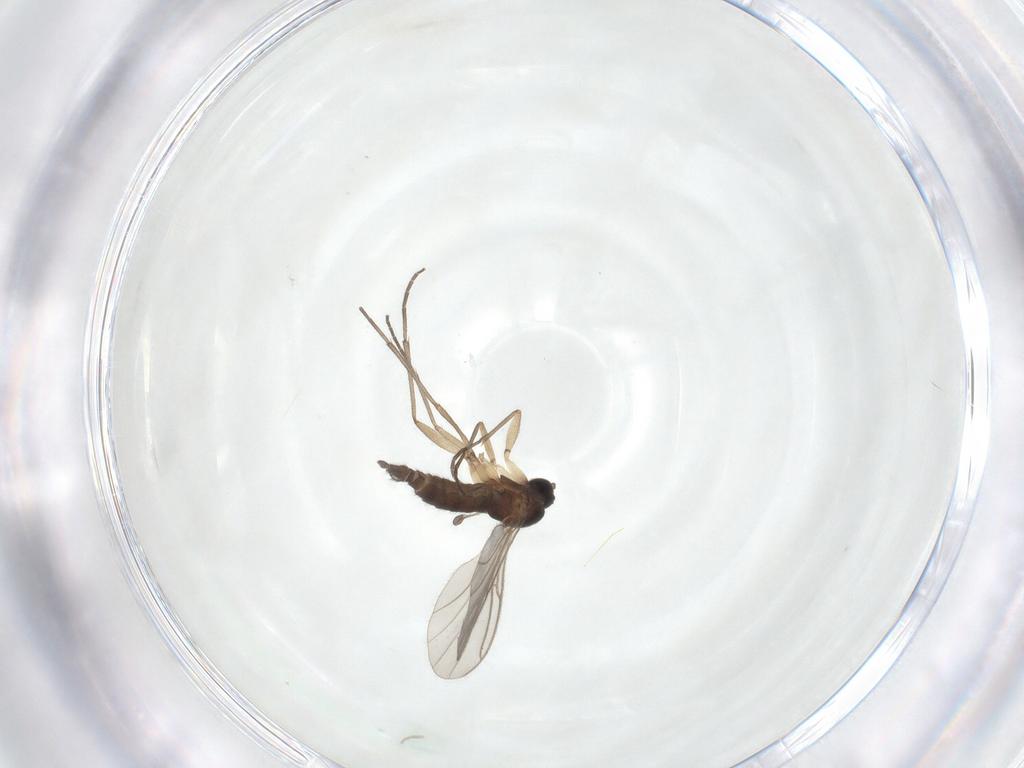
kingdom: Animalia
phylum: Arthropoda
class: Insecta
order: Diptera
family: Sciaridae
